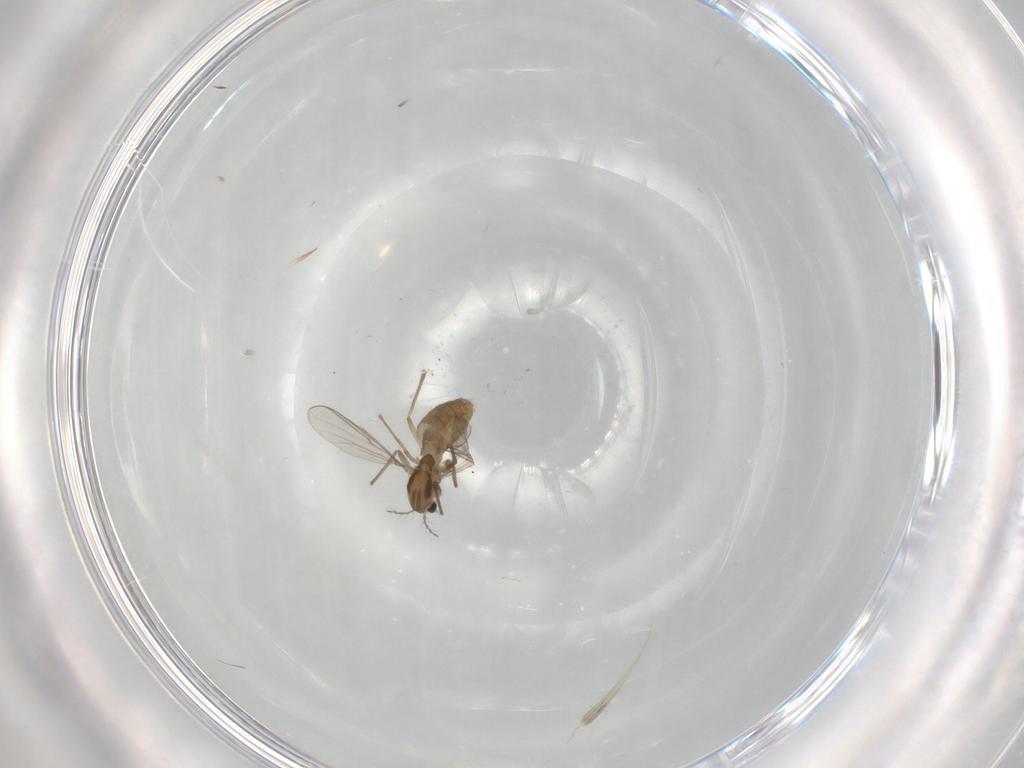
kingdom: Animalia
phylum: Arthropoda
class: Insecta
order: Diptera
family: Chironomidae
